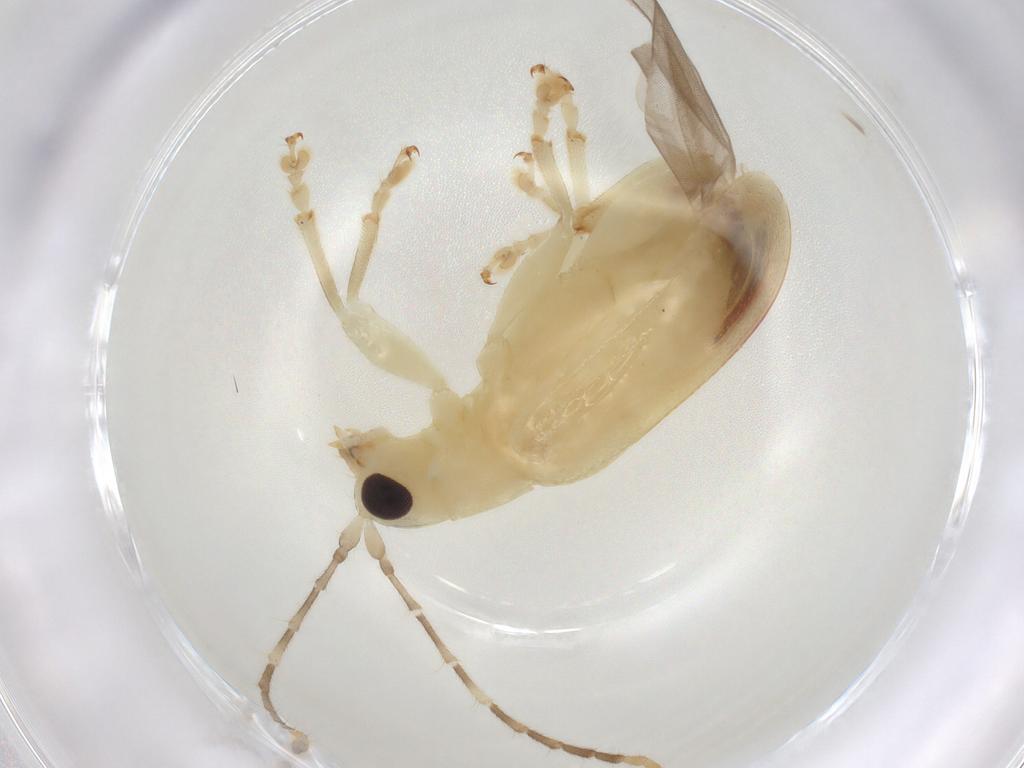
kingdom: Animalia
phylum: Arthropoda
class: Insecta
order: Coleoptera
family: Chrysomelidae
